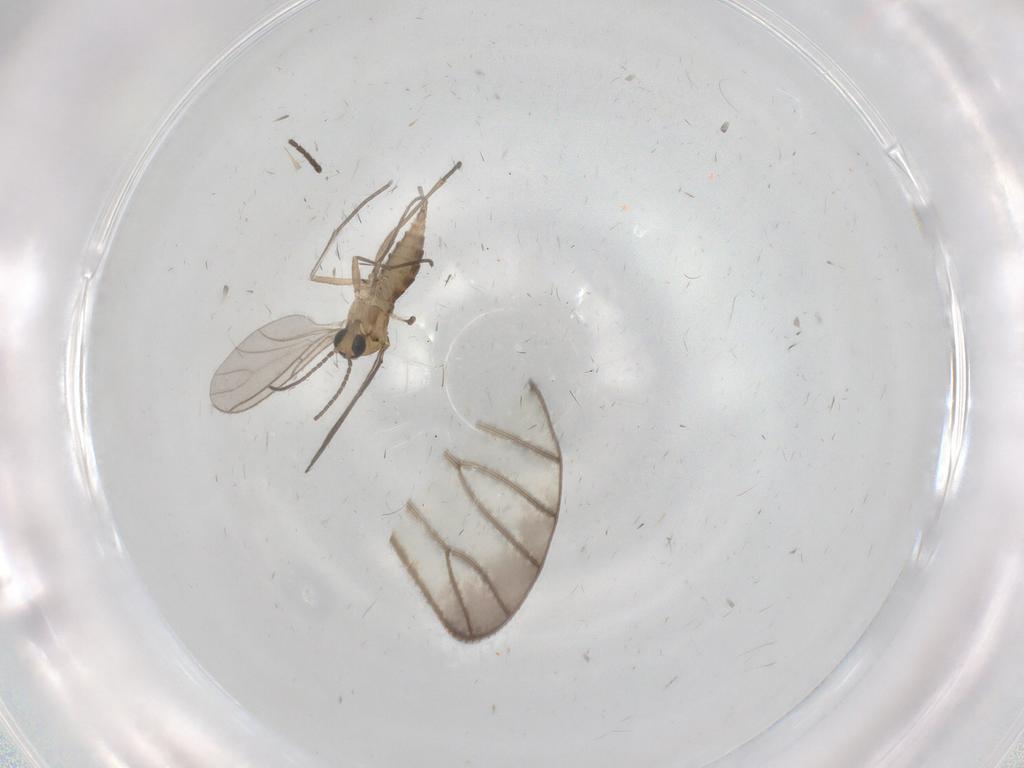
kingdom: Animalia
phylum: Arthropoda
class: Insecta
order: Diptera
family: Sciaridae
